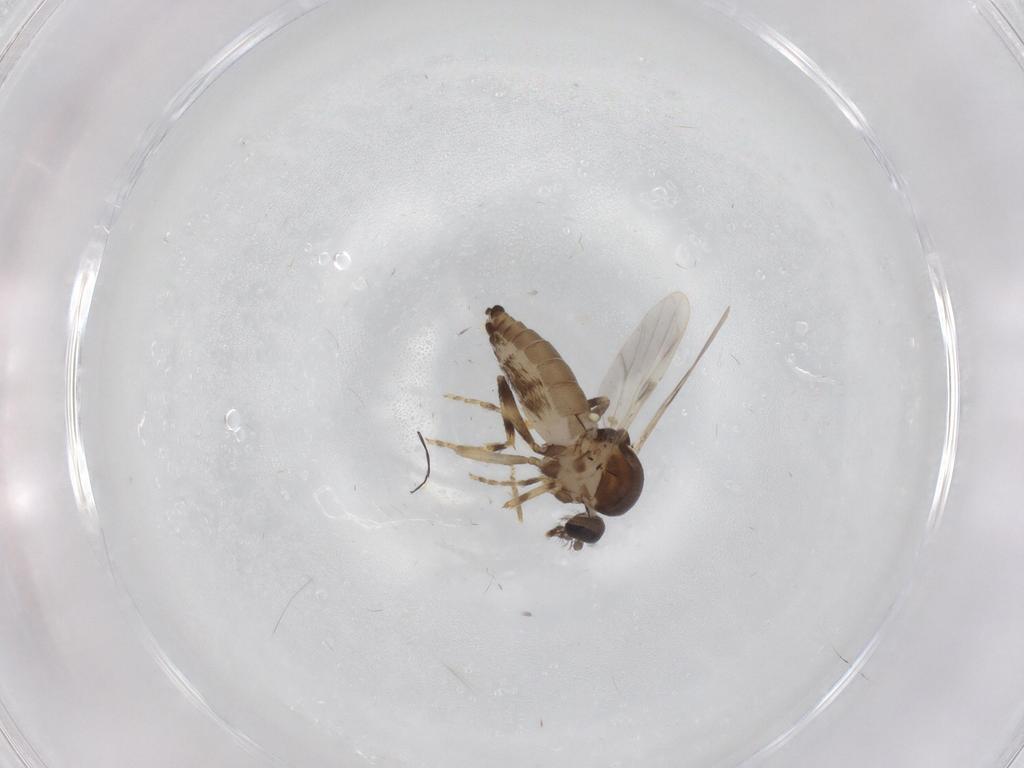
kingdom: Animalia
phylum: Arthropoda
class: Insecta
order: Diptera
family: Ceratopogonidae
